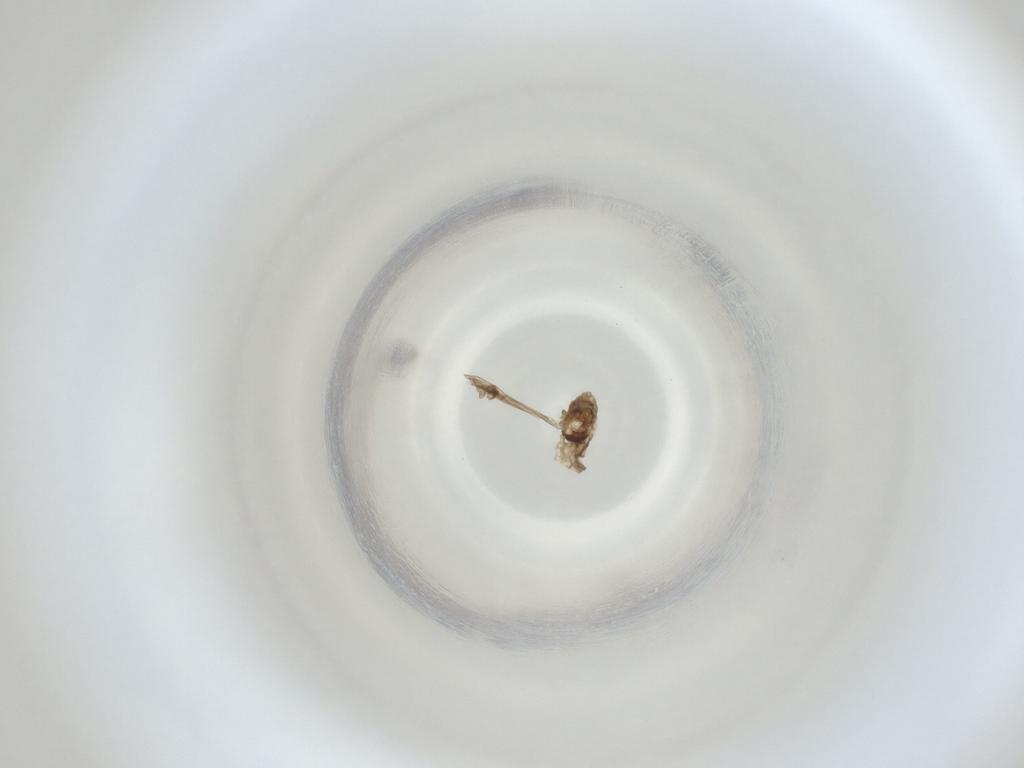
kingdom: Animalia
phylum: Arthropoda
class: Insecta
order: Diptera
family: Cecidomyiidae
